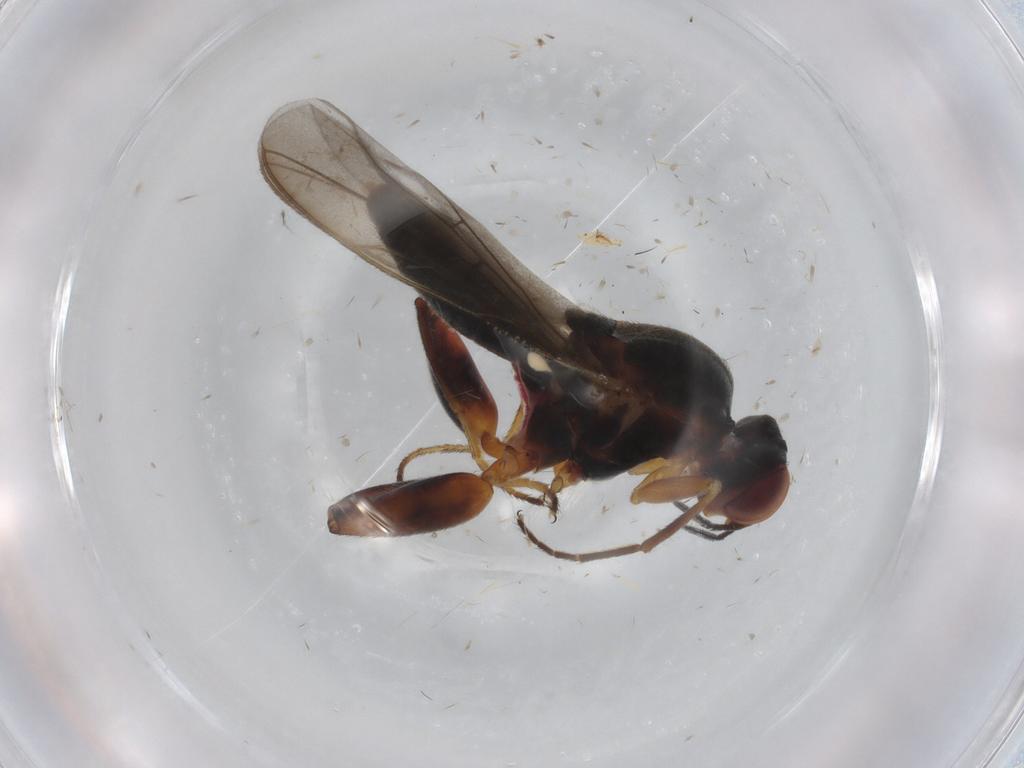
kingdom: Animalia
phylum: Arthropoda
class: Insecta
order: Diptera
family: Chloropidae
